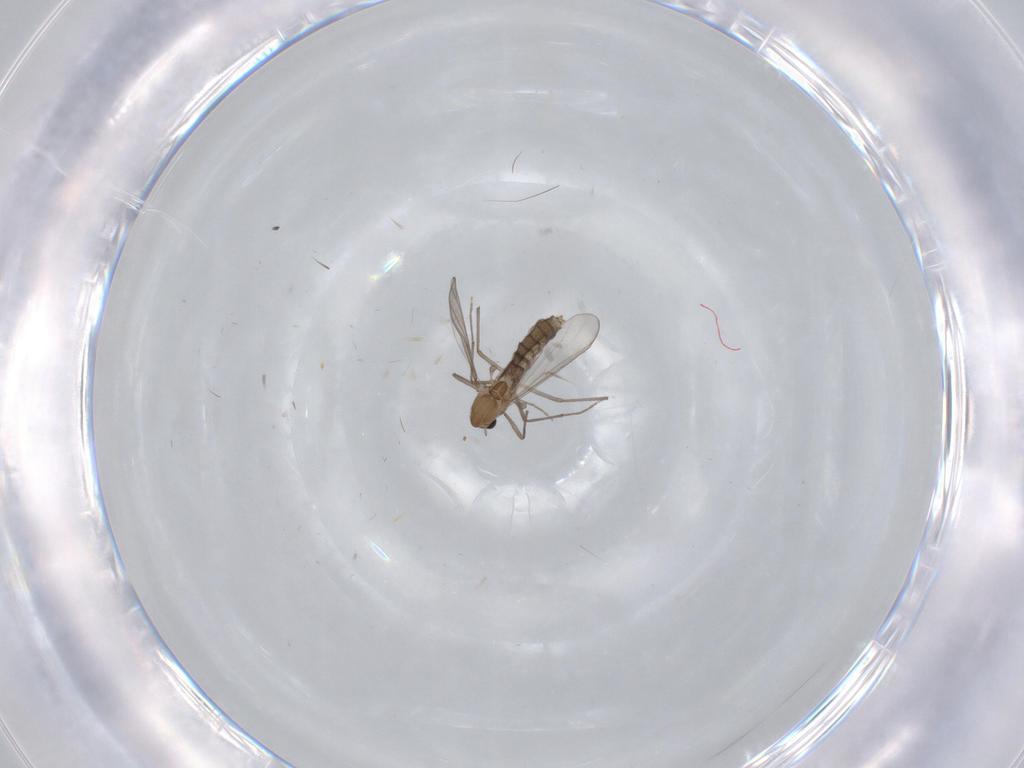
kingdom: Animalia
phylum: Arthropoda
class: Insecta
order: Diptera
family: Chironomidae
